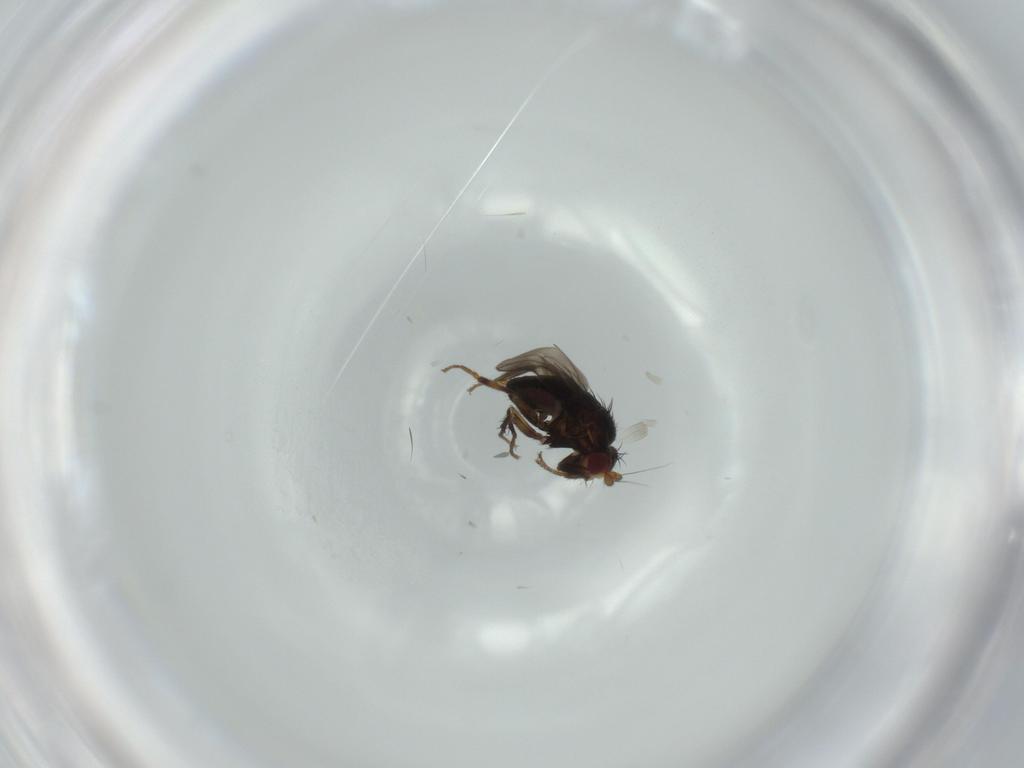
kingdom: Animalia
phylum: Arthropoda
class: Insecta
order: Diptera
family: Sphaeroceridae
